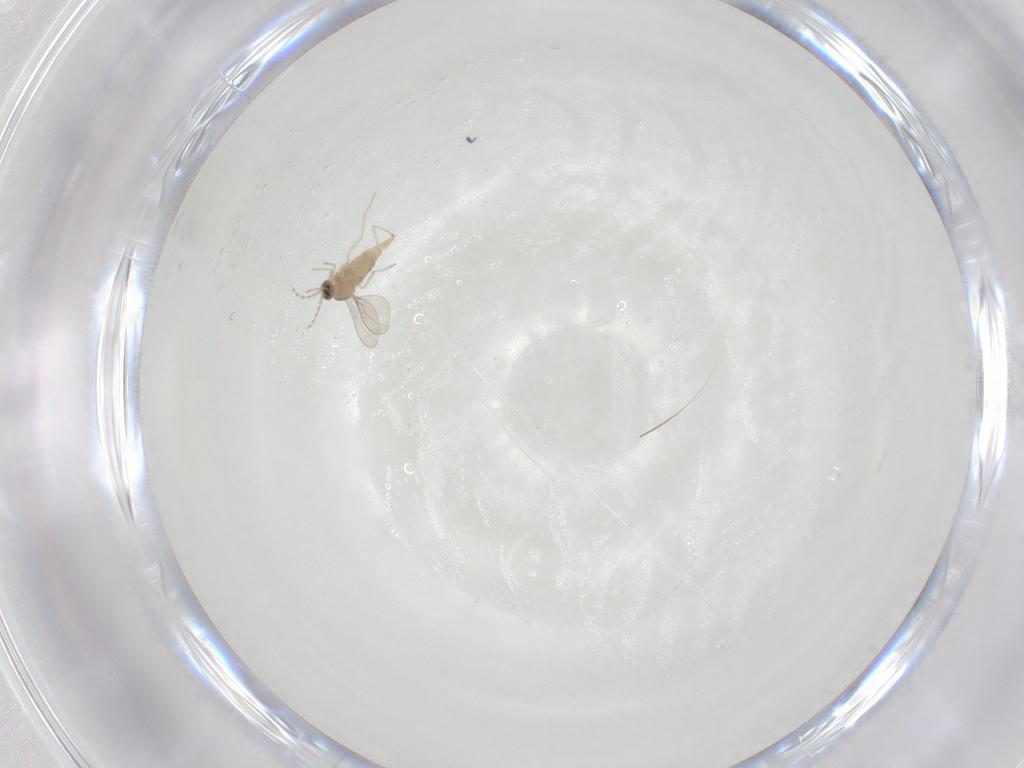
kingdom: Animalia
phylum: Arthropoda
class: Insecta
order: Diptera
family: Cecidomyiidae
